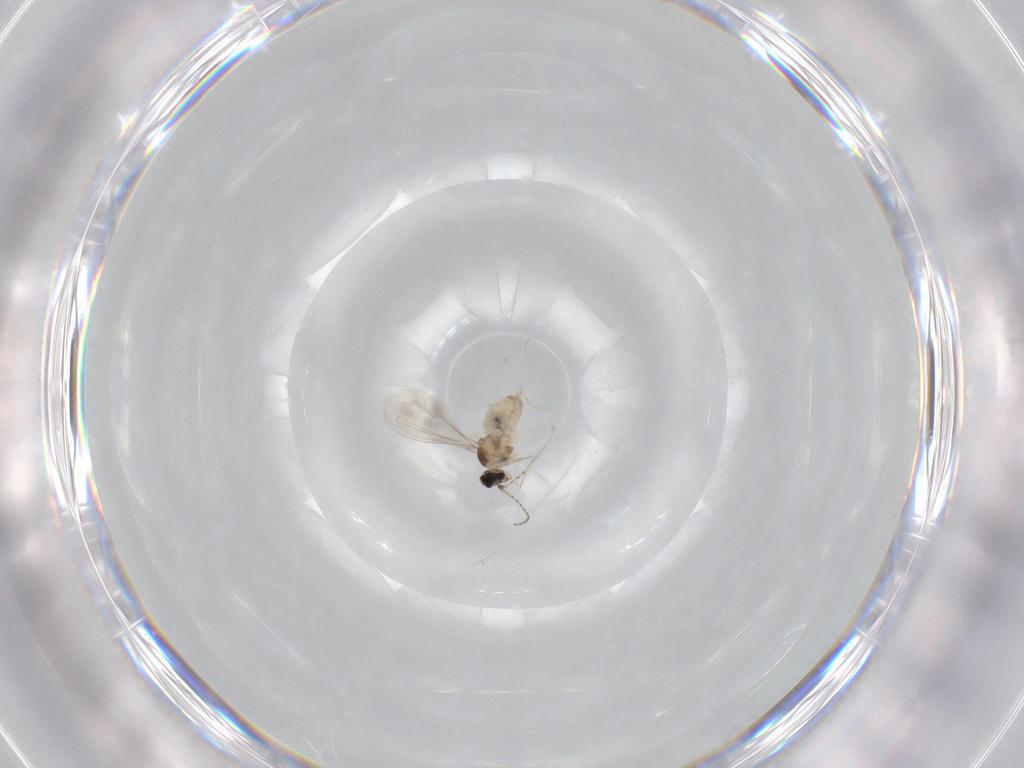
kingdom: Animalia
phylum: Arthropoda
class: Insecta
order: Diptera
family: Cecidomyiidae
